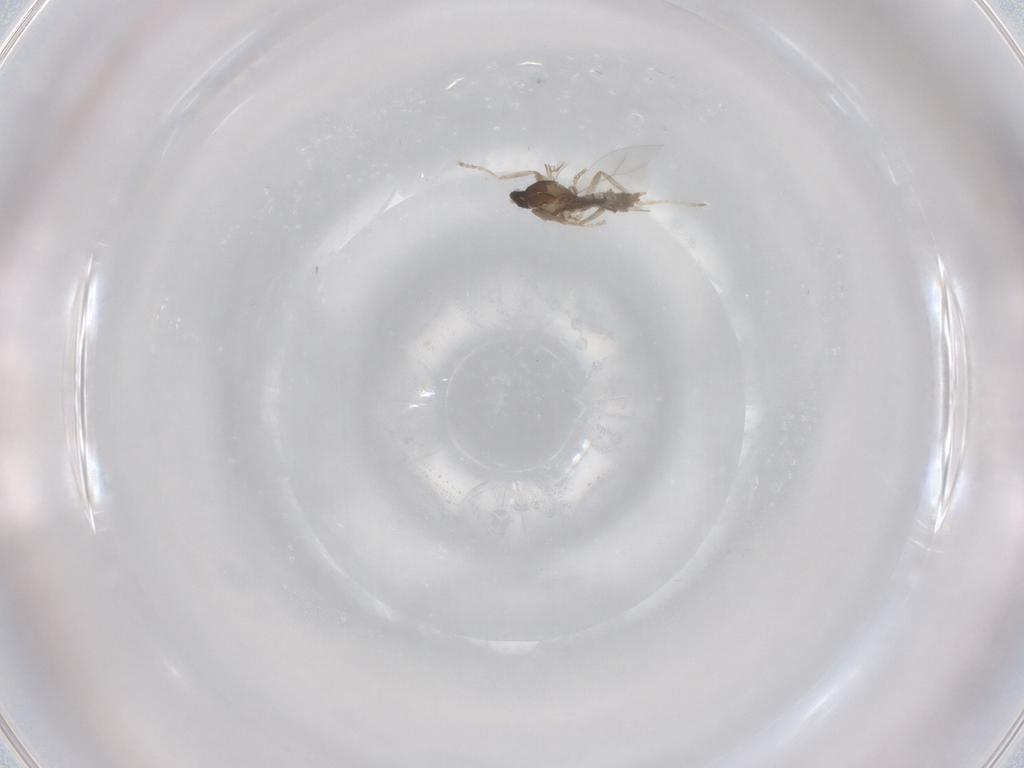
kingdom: Animalia
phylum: Arthropoda
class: Insecta
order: Diptera
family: Cecidomyiidae
